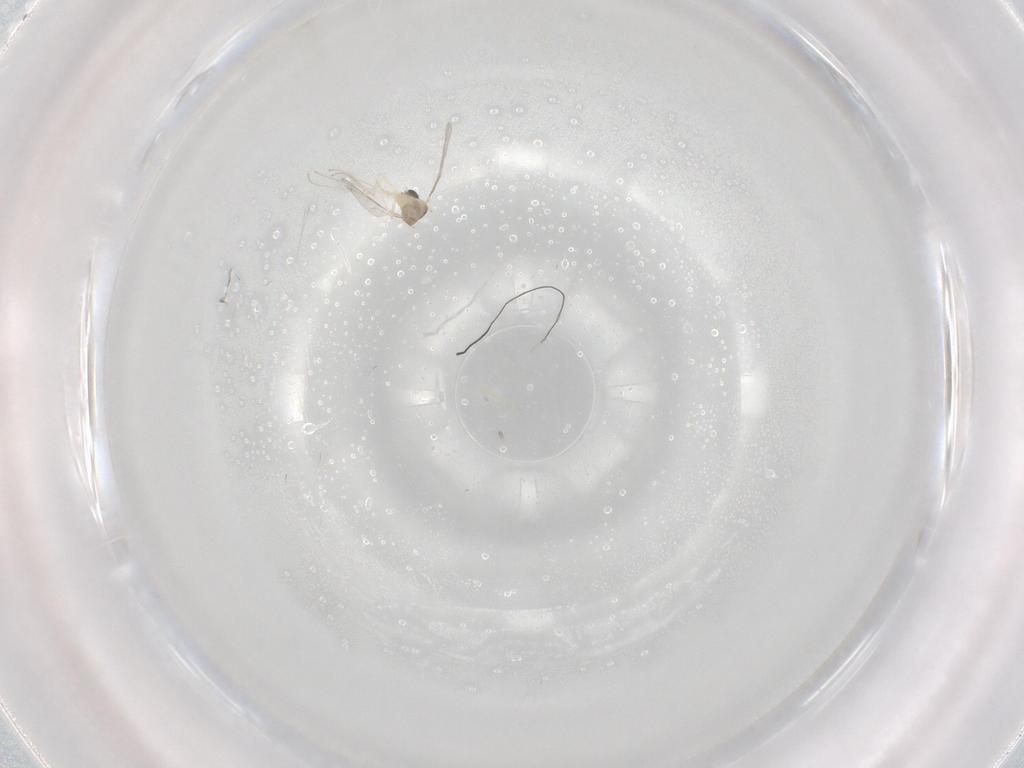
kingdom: Animalia
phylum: Arthropoda
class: Insecta
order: Diptera
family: Cecidomyiidae
